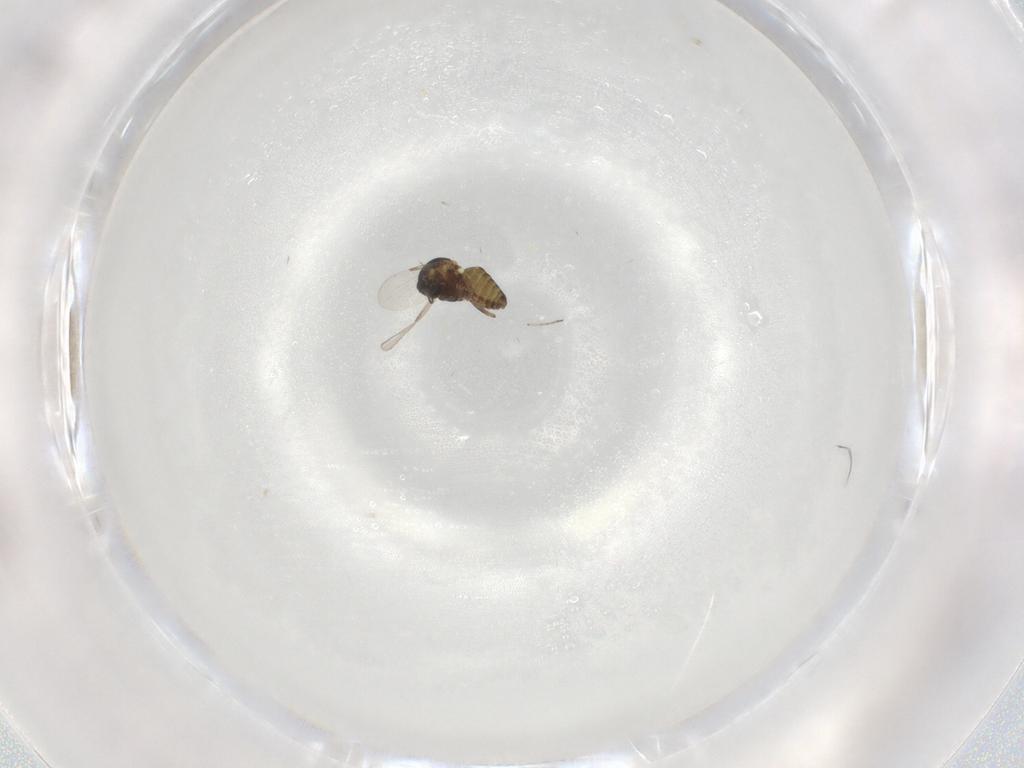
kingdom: Animalia
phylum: Arthropoda
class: Insecta
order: Diptera
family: Ceratopogonidae
